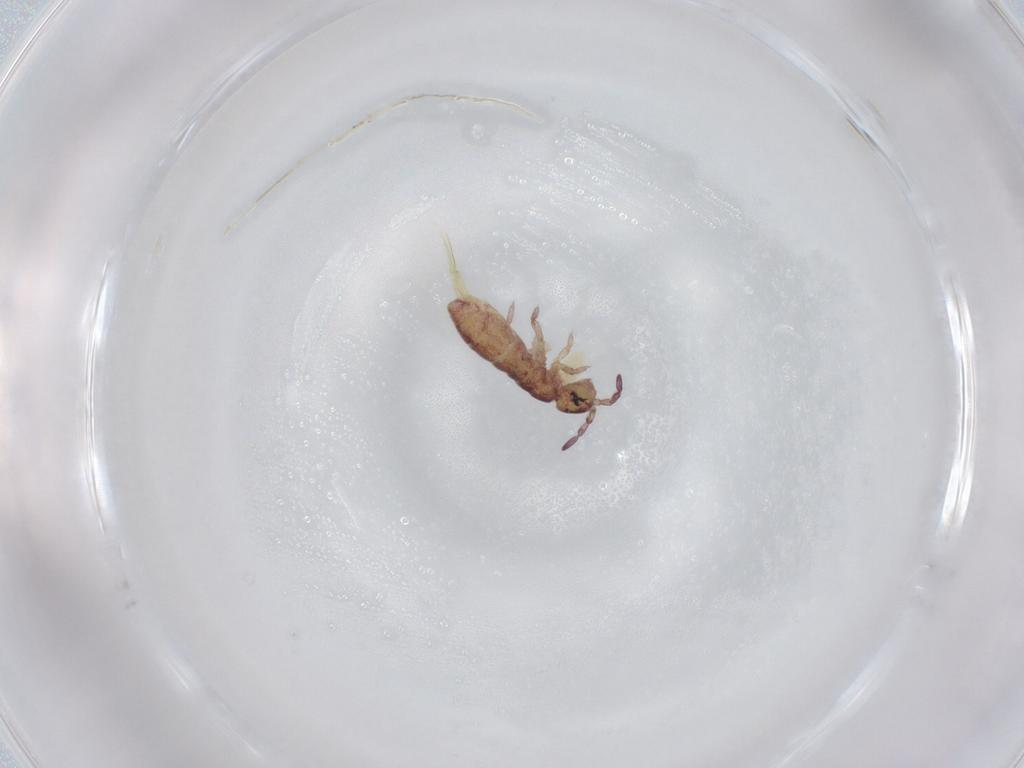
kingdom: Animalia
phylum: Arthropoda
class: Collembola
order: Entomobryomorpha
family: Isotomidae
